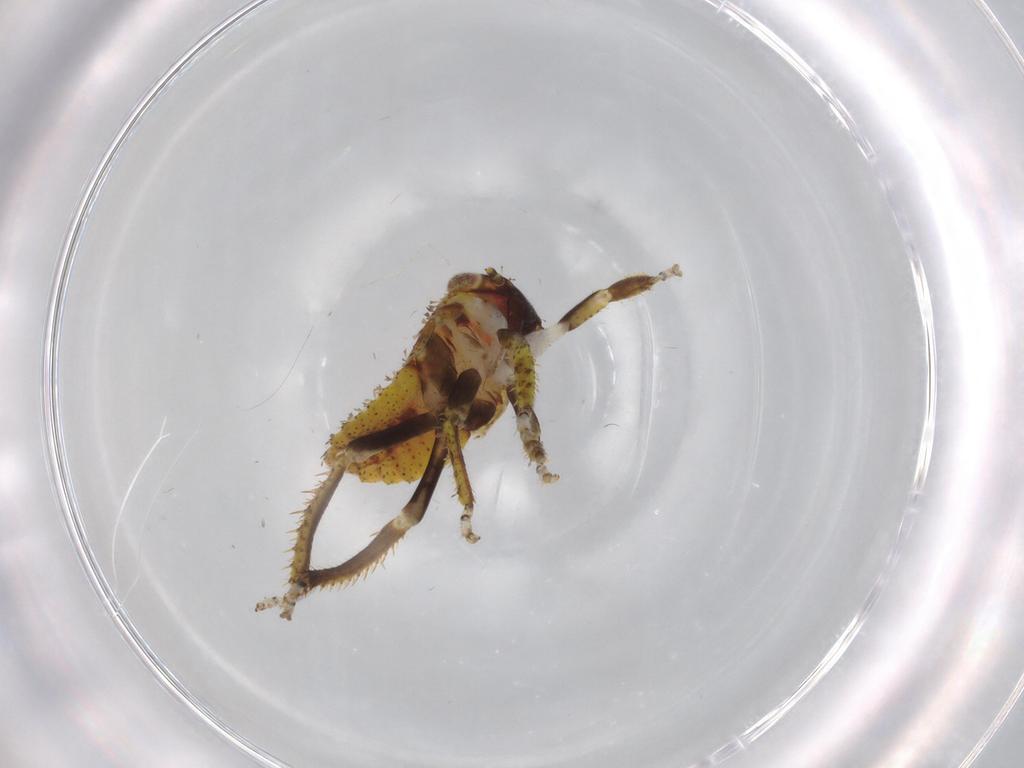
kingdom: Animalia
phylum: Arthropoda
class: Insecta
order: Hemiptera
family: Cicadellidae
